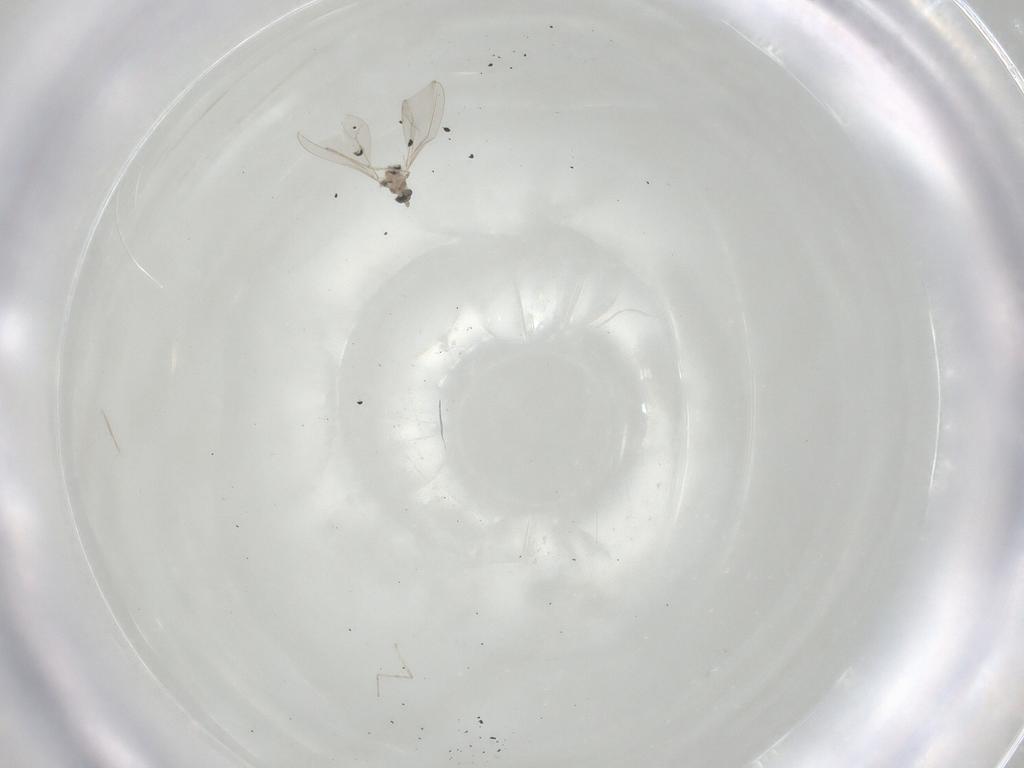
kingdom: Animalia
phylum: Arthropoda
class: Insecta
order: Diptera
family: Cecidomyiidae
